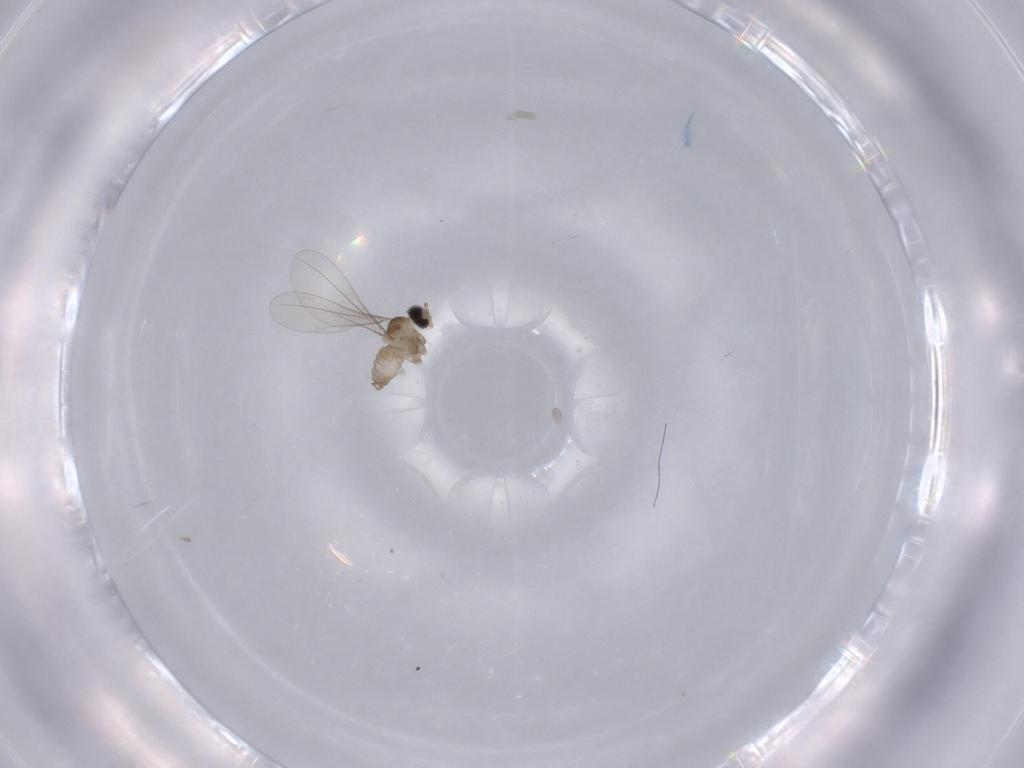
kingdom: Animalia
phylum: Arthropoda
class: Insecta
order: Diptera
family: Cecidomyiidae
